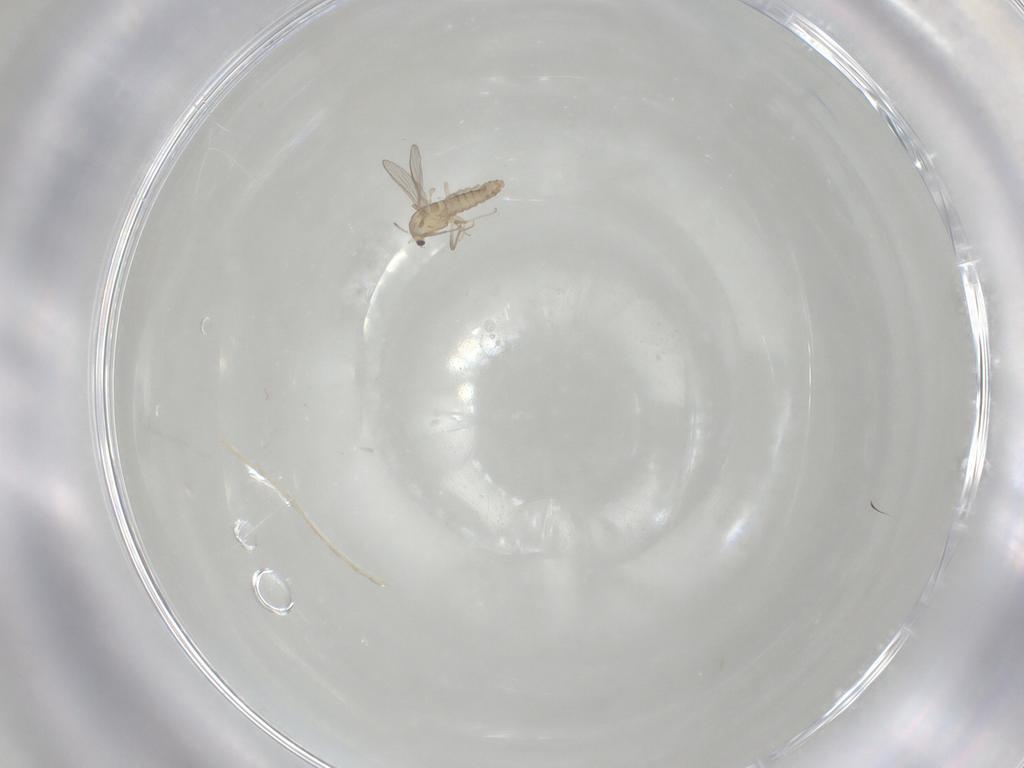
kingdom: Animalia
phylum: Arthropoda
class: Insecta
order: Diptera
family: Chironomidae
